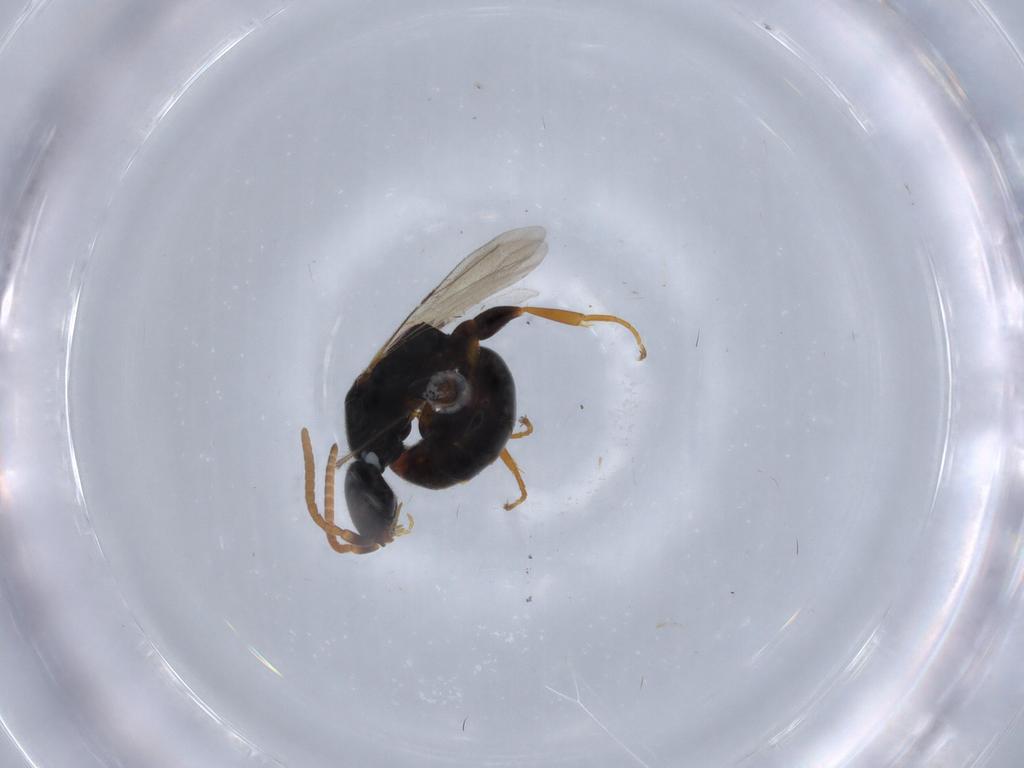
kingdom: Animalia
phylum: Arthropoda
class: Insecta
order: Hymenoptera
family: Bethylidae
